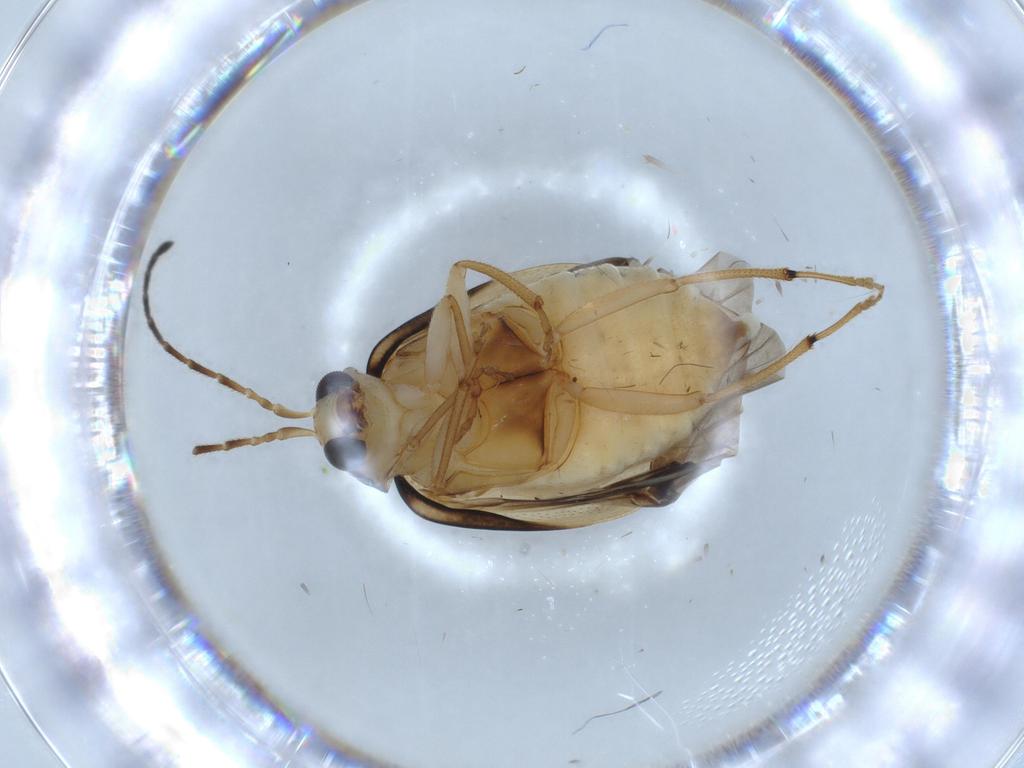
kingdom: Animalia
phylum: Arthropoda
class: Insecta
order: Coleoptera
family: Chrysomelidae
